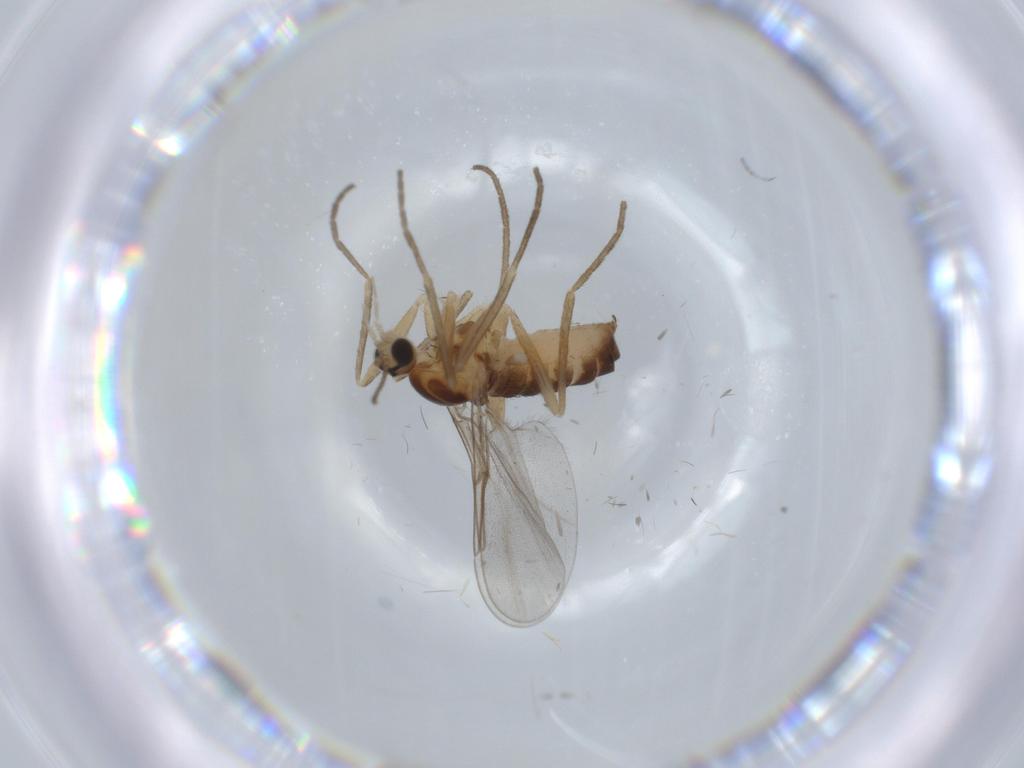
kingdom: Animalia
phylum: Arthropoda
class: Insecta
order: Diptera
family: Cecidomyiidae
